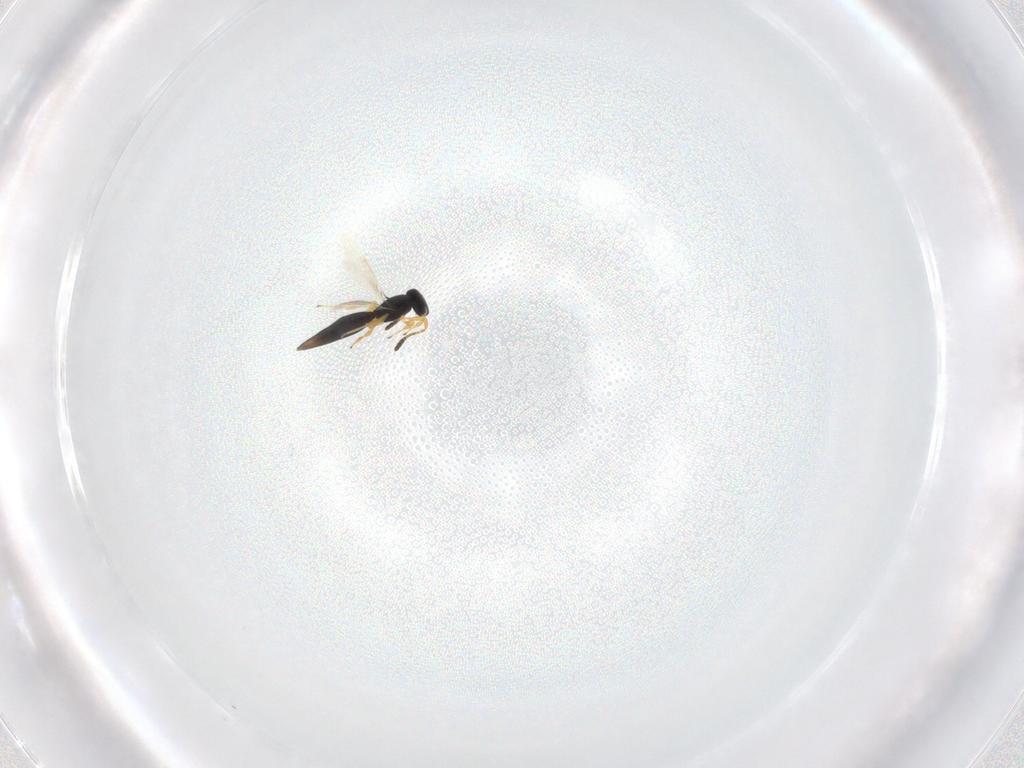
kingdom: Animalia
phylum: Arthropoda
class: Insecta
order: Hymenoptera
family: Scelionidae
